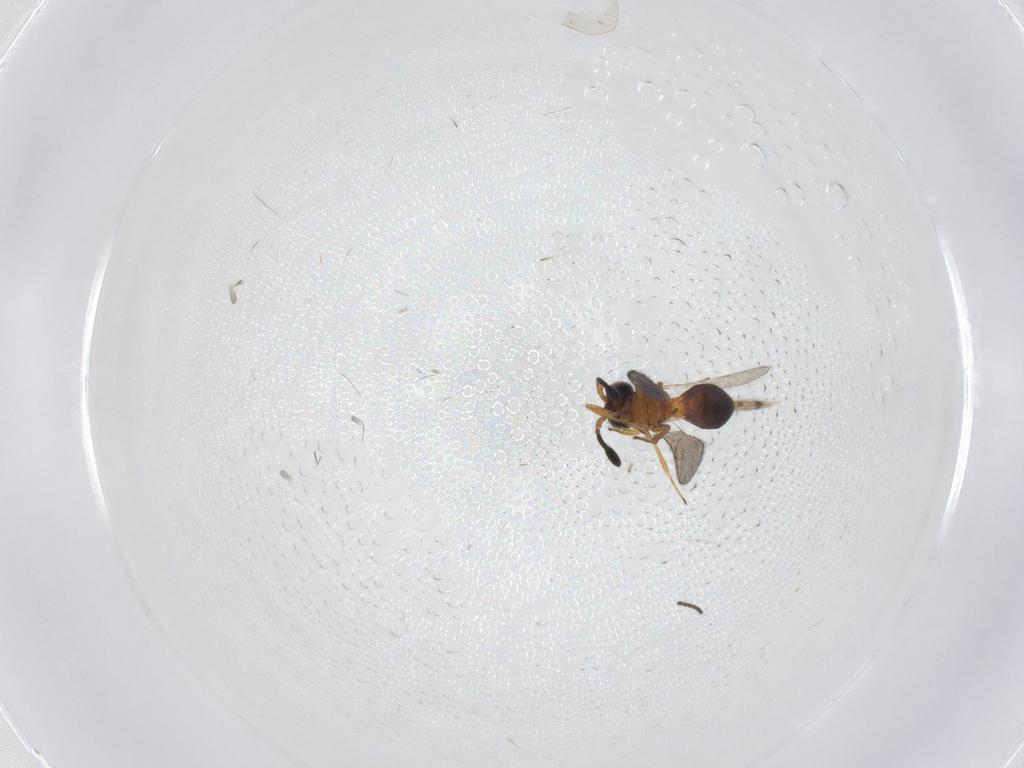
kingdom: Animalia
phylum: Arthropoda
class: Insecta
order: Hymenoptera
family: Scelionidae
